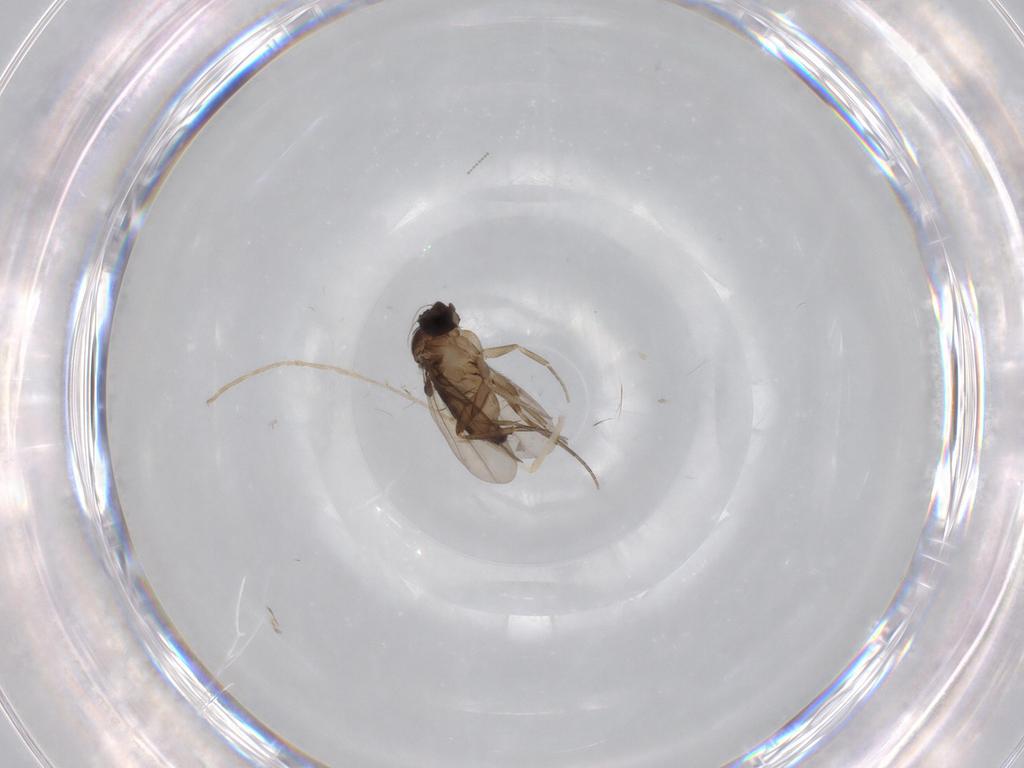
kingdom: Animalia
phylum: Arthropoda
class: Insecta
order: Diptera
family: Phoridae
